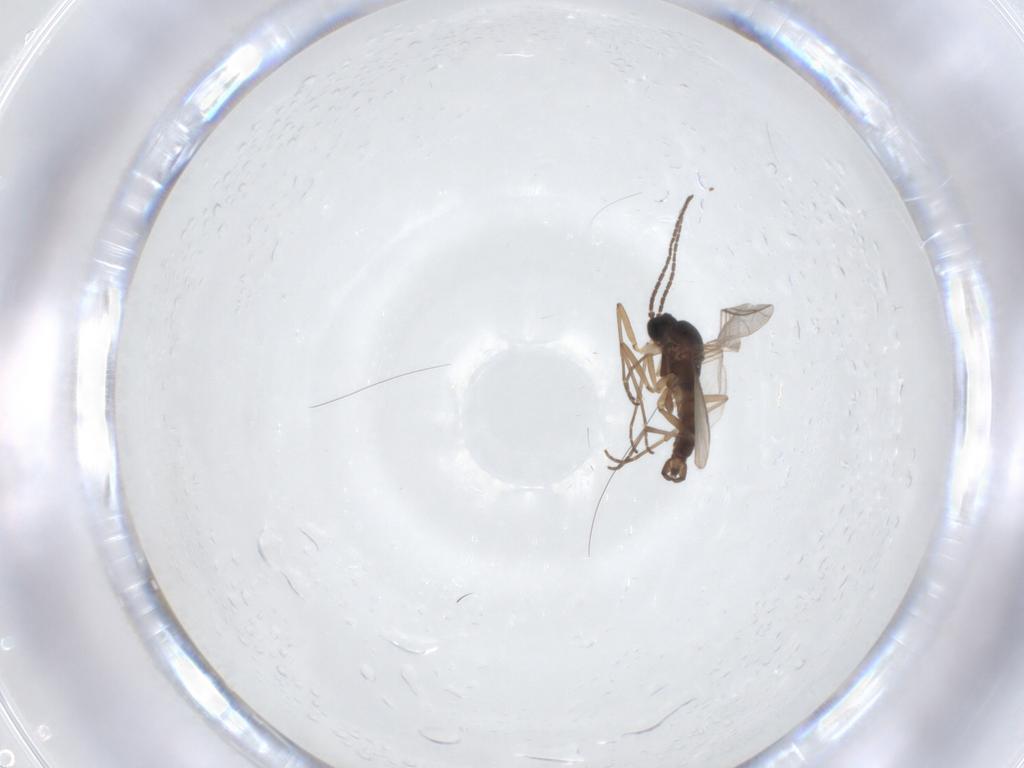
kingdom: Animalia
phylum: Arthropoda
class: Insecta
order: Diptera
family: Sciaridae
